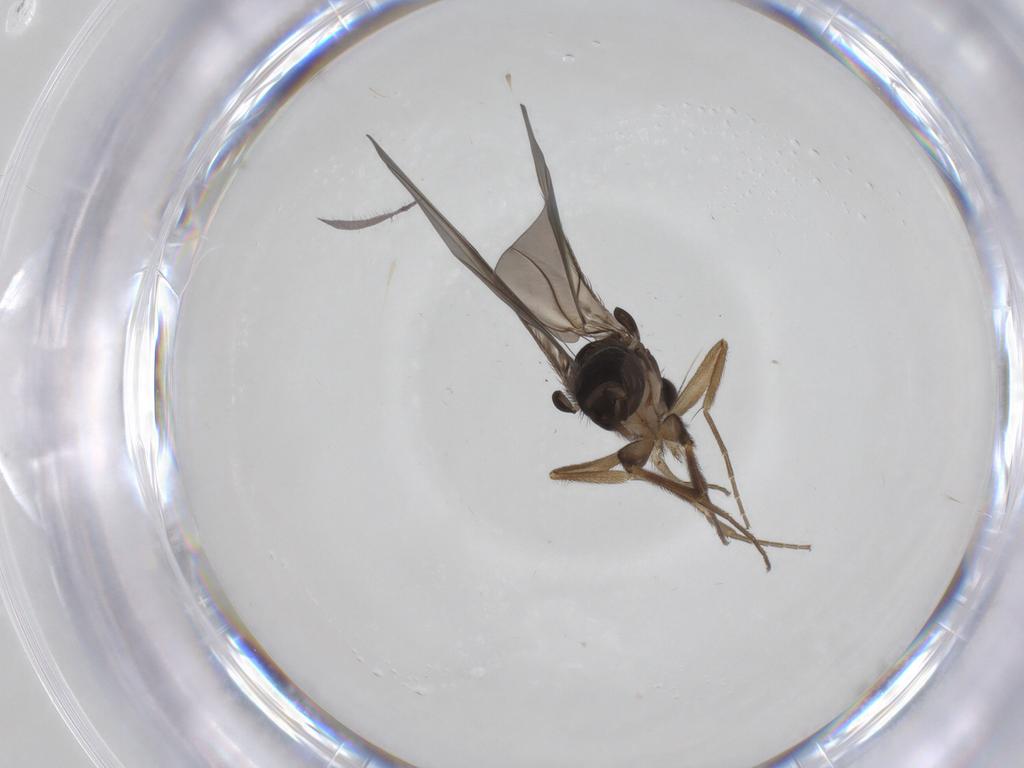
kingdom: Animalia
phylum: Arthropoda
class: Insecta
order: Diptera
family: Phoridae
